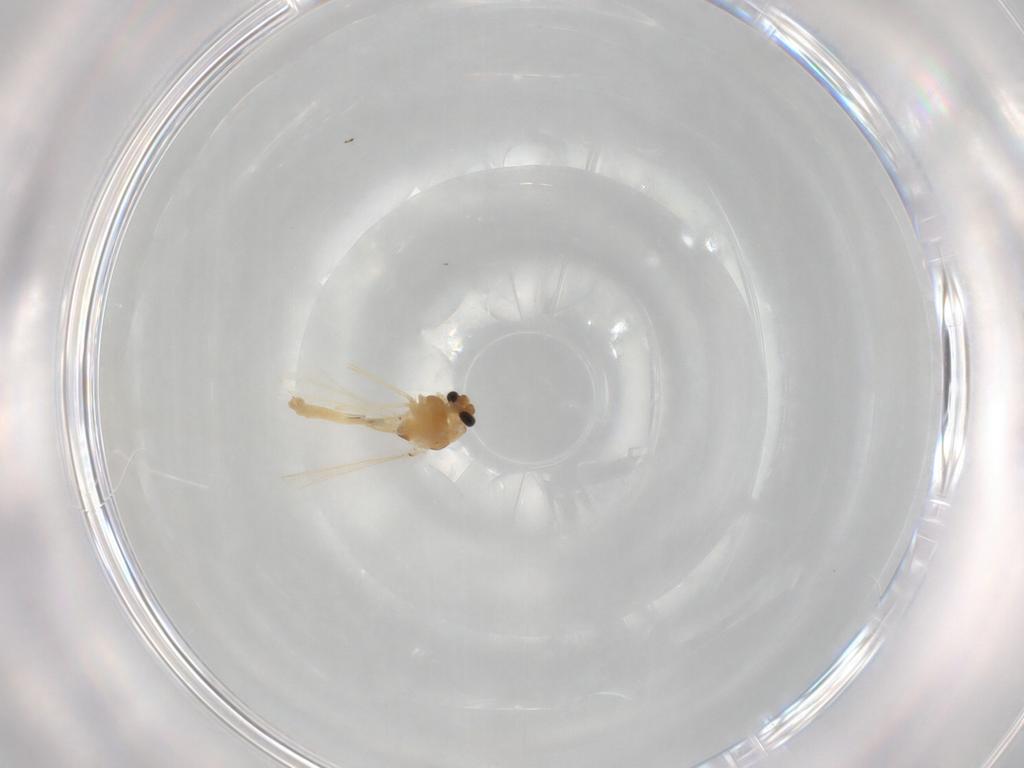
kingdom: Animalia
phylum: Arthropoda
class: Insecta
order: Diptera
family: Chironomidae
